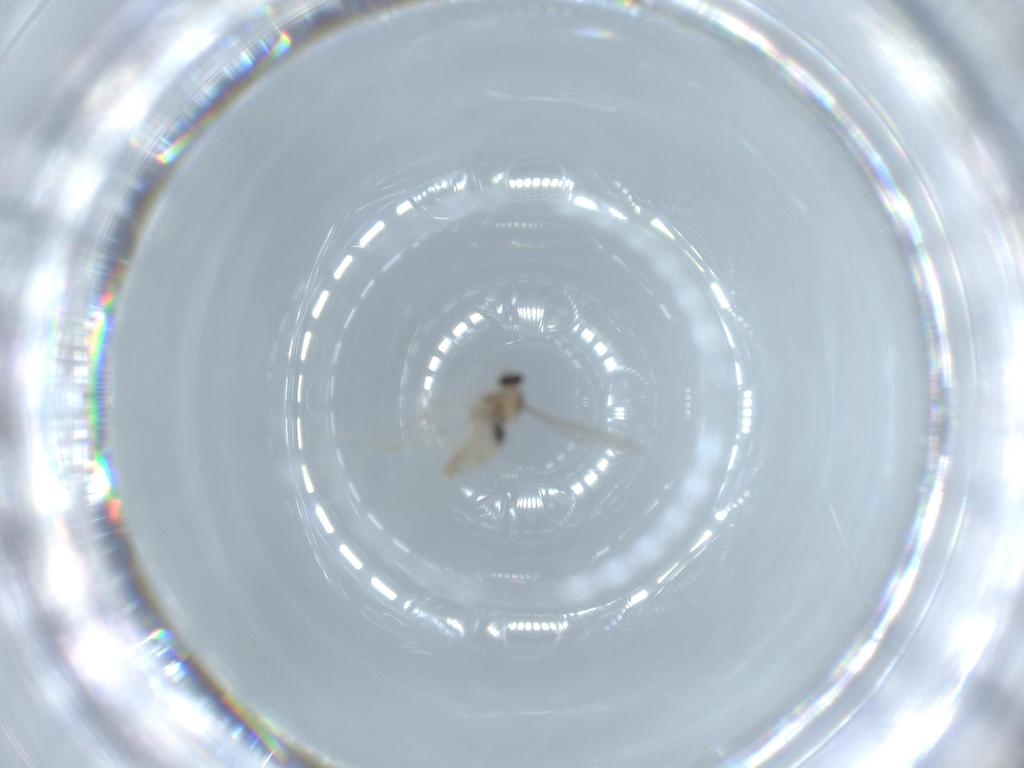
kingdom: Animalia
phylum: Arthropoda
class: Insecta
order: Diptera
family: Cecidomyiidae
